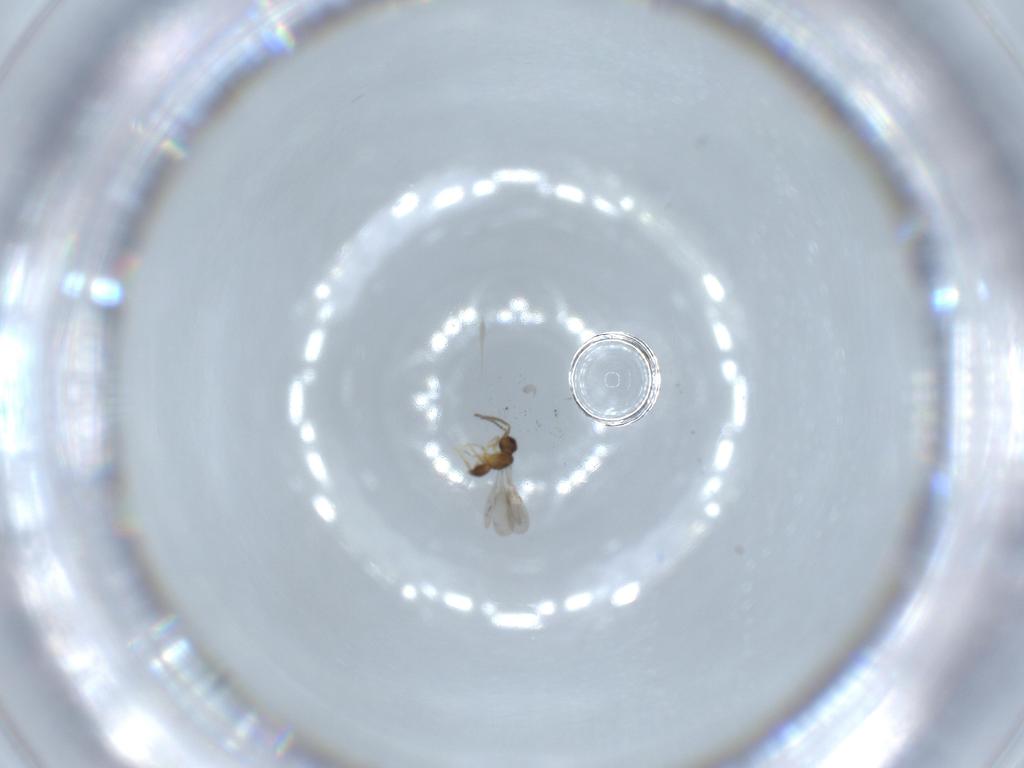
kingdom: Animalia
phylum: Arthropoda
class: Insecta
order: Hymenoptera
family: Ceraphronidae
